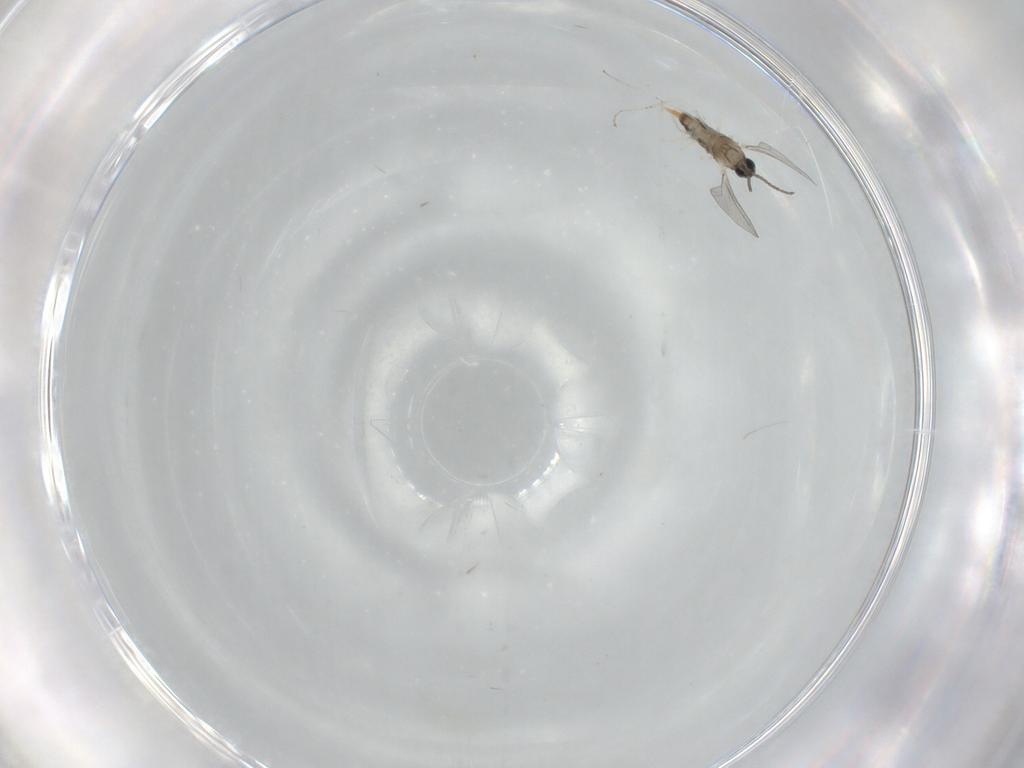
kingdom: Animalia
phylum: Arthropoda
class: Insecta
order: Diptera
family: Cecidomyiidae
